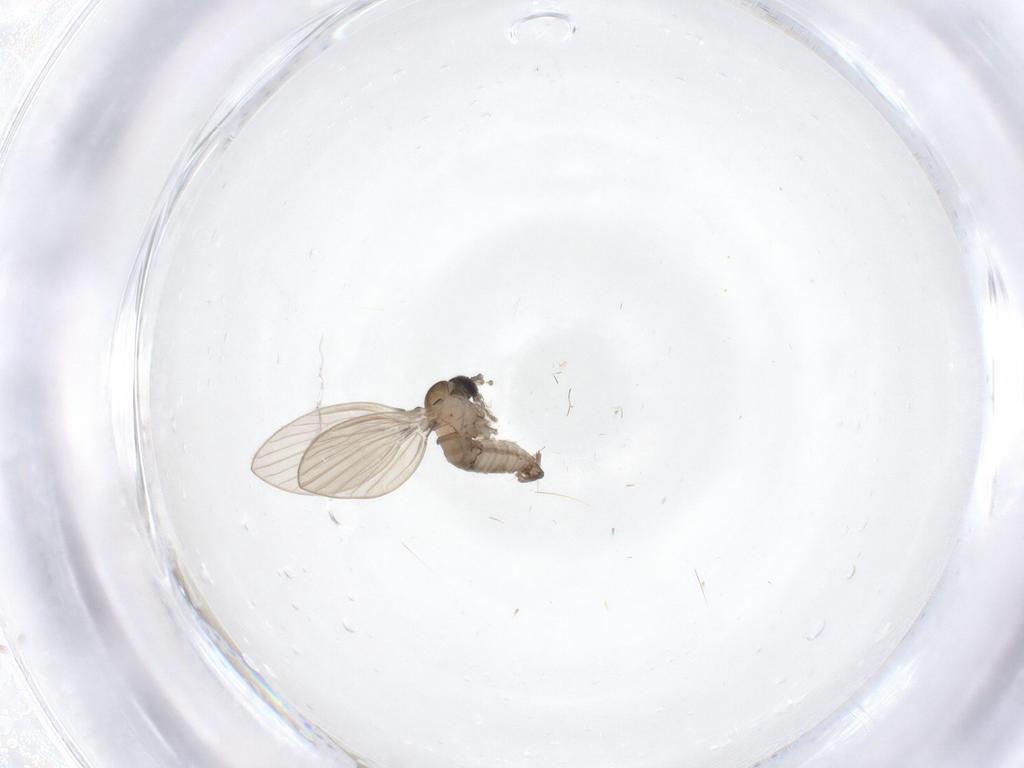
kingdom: Animalia
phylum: Arthropoda
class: Insecta
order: Diptera
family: Psychodidae
